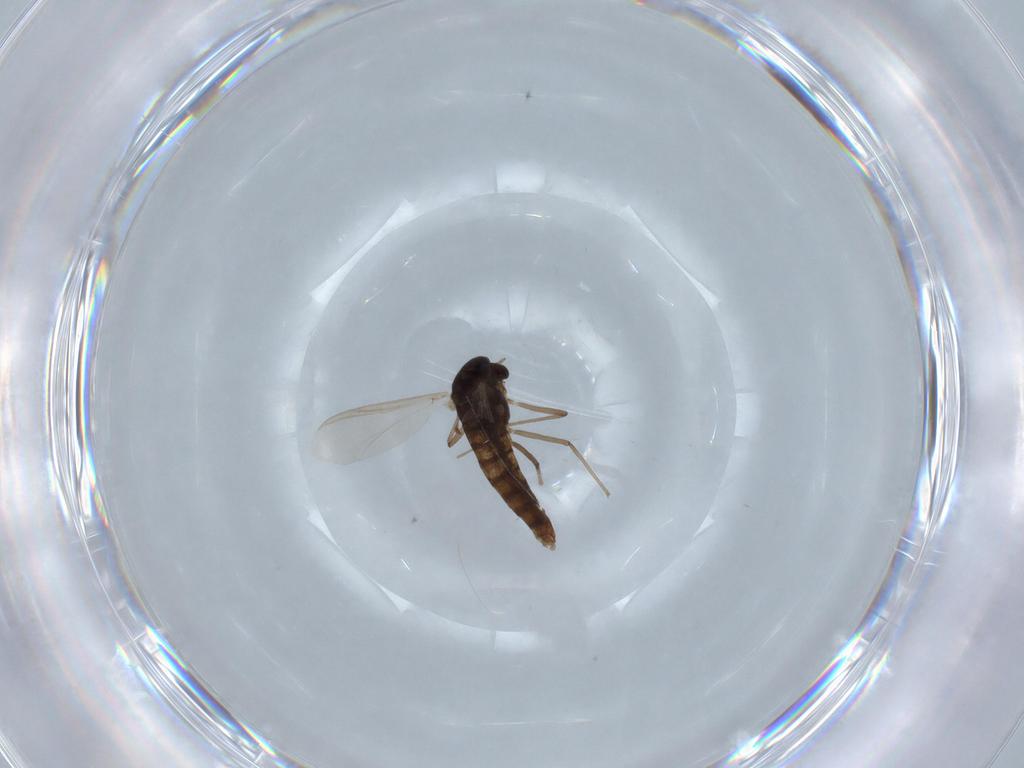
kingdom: Animalia
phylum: Arthropoda
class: Insecta
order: Diptera
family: Chironomidae
